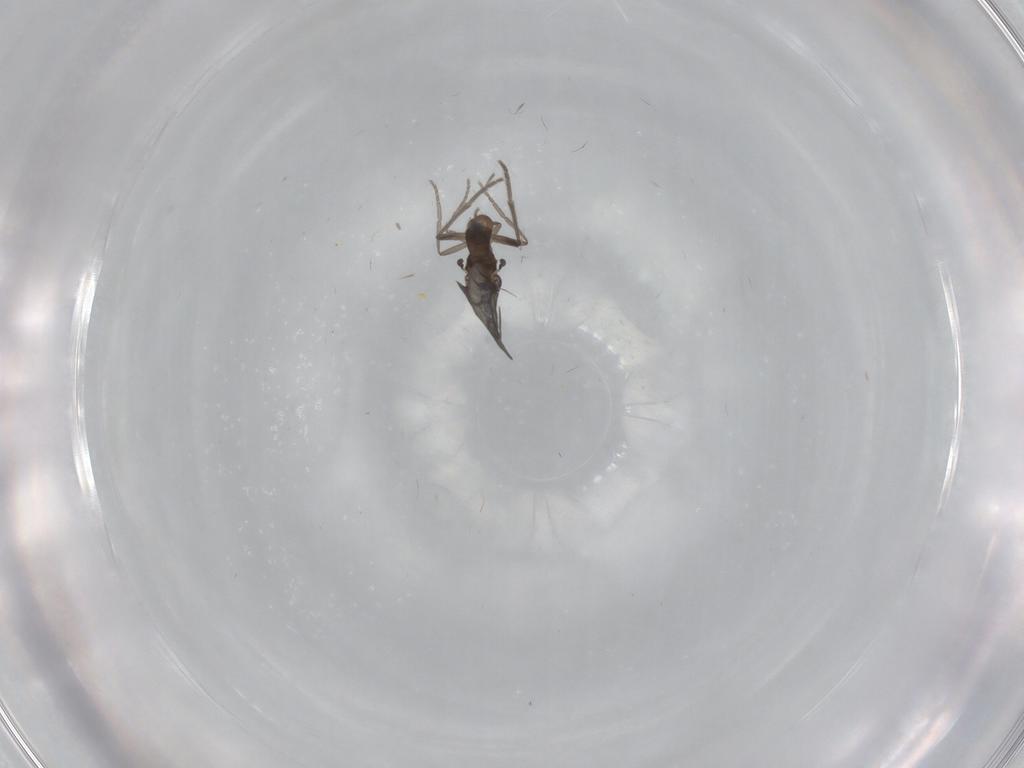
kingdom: Animalia
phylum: Arthropoda
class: Insecta
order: Diptera
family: Phoridae
